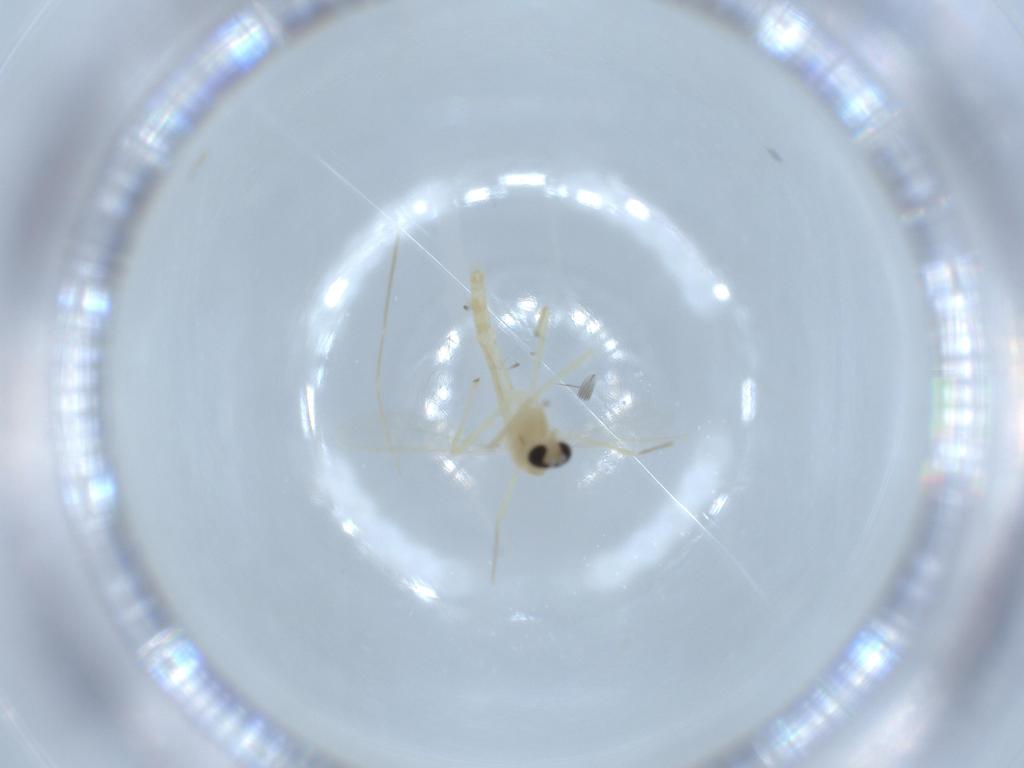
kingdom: Animalia
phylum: Arthropoda
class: Insecta
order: Diptera
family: Chironomidae
